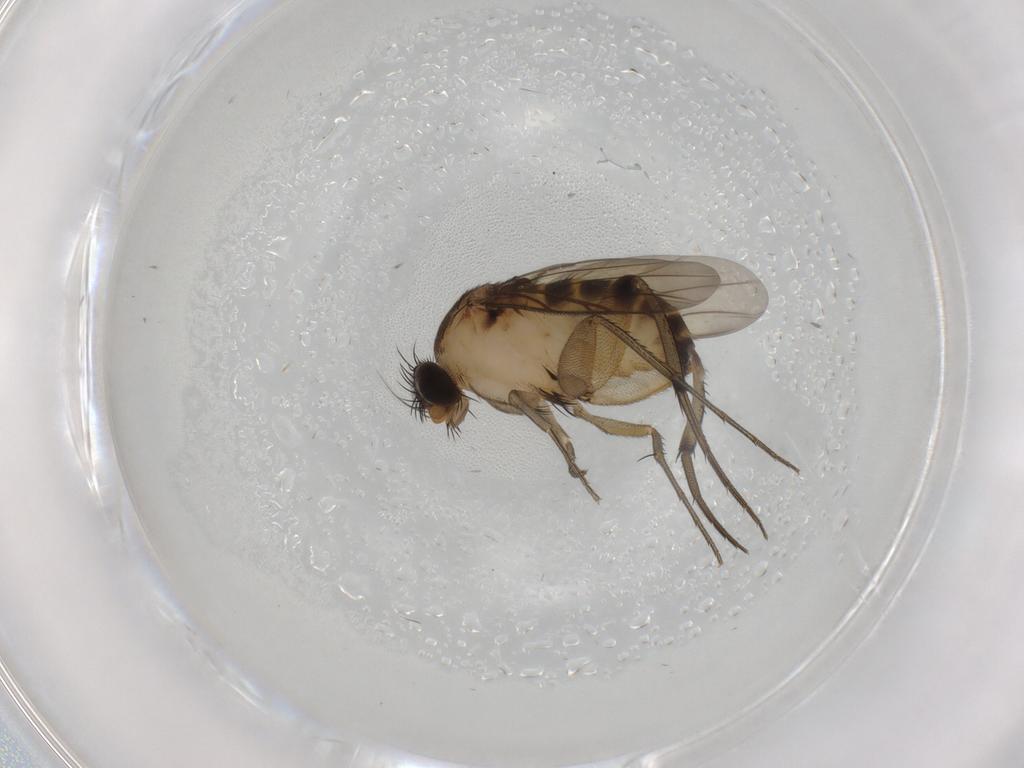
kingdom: Animalia
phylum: Arthropoda
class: Insecta
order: Diptera
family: Phoridae
